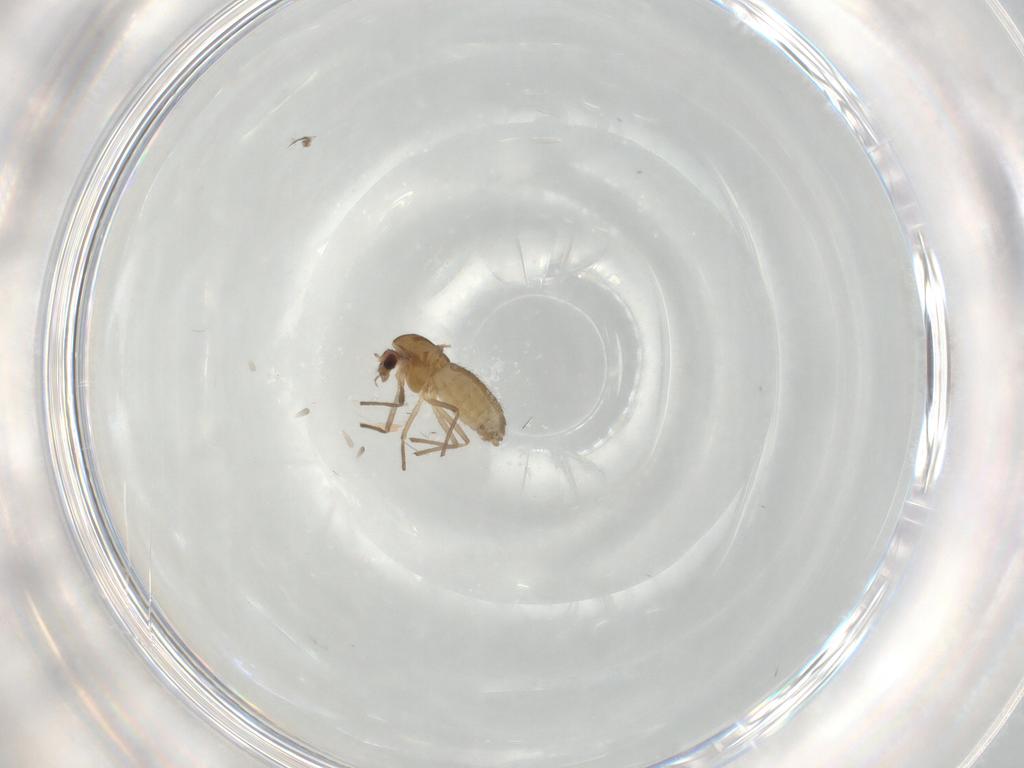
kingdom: Animalia
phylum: Arthropoda
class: Insecta
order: Diptera
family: Chironomidae
